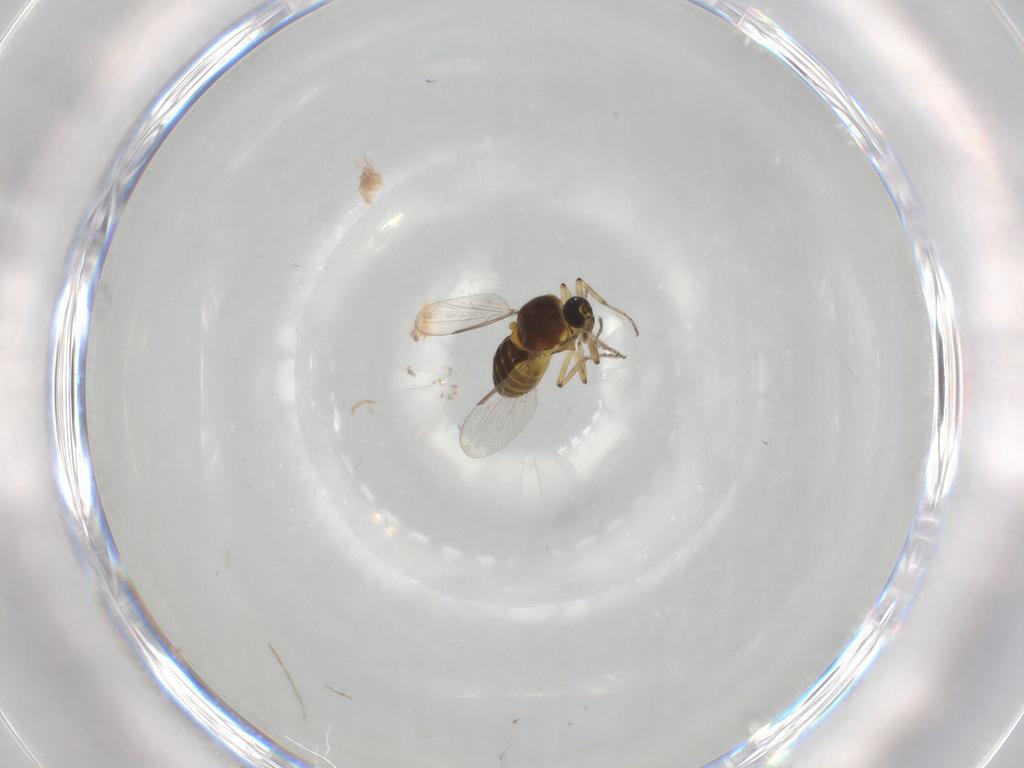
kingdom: Animalia
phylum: Arthropoda
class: Insecta
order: Diptera
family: Ceratopogonidae
